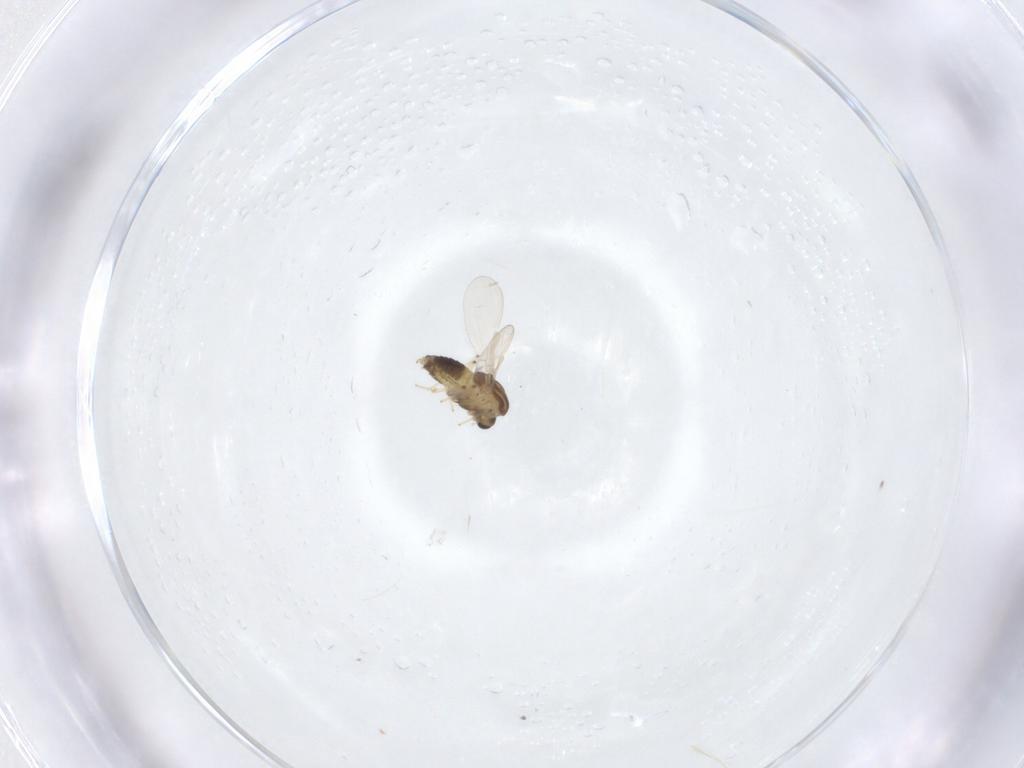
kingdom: Animalia
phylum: Arthropoda
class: Insecta
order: Diptera
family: Chironomidae
